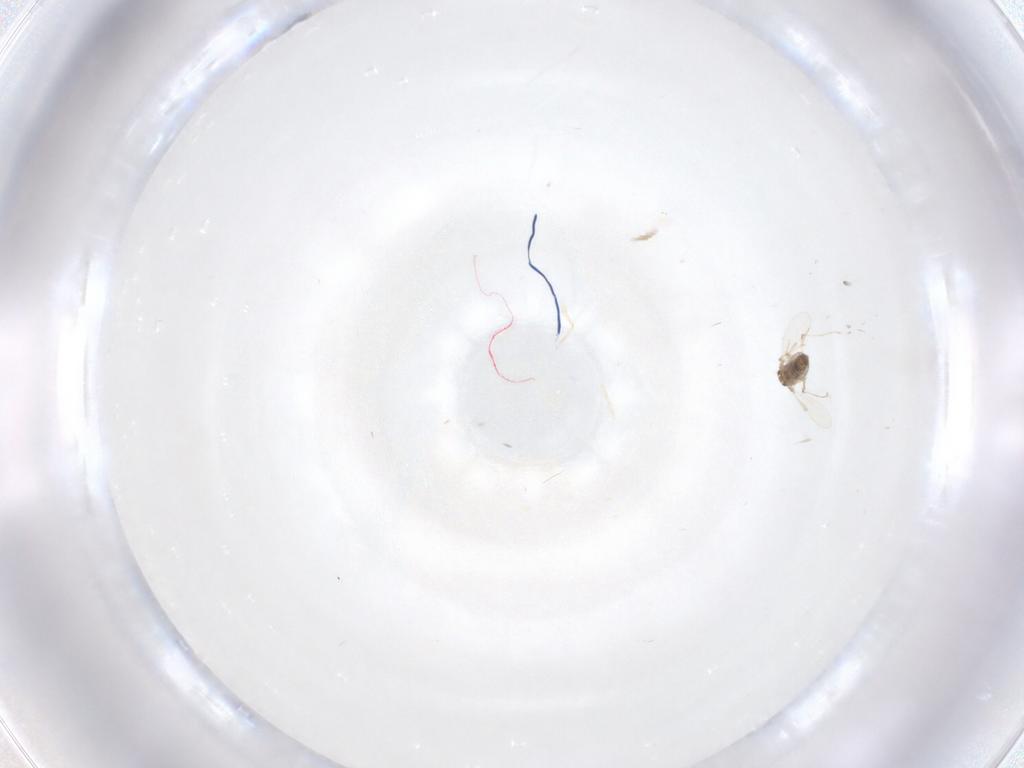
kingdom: Animalia
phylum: Arthropoda
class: Insecta
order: Diptera
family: Chironomidae
